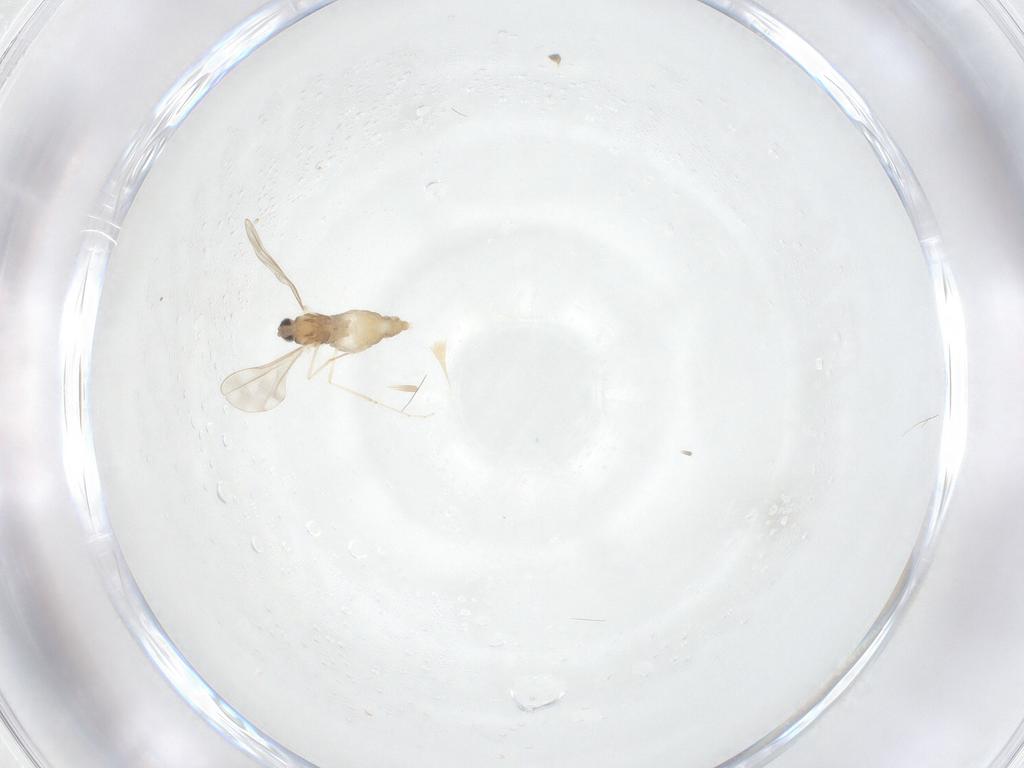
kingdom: Animalia
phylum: Arthropoda
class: Insecta
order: Diptera
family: Cecidomyiidae
